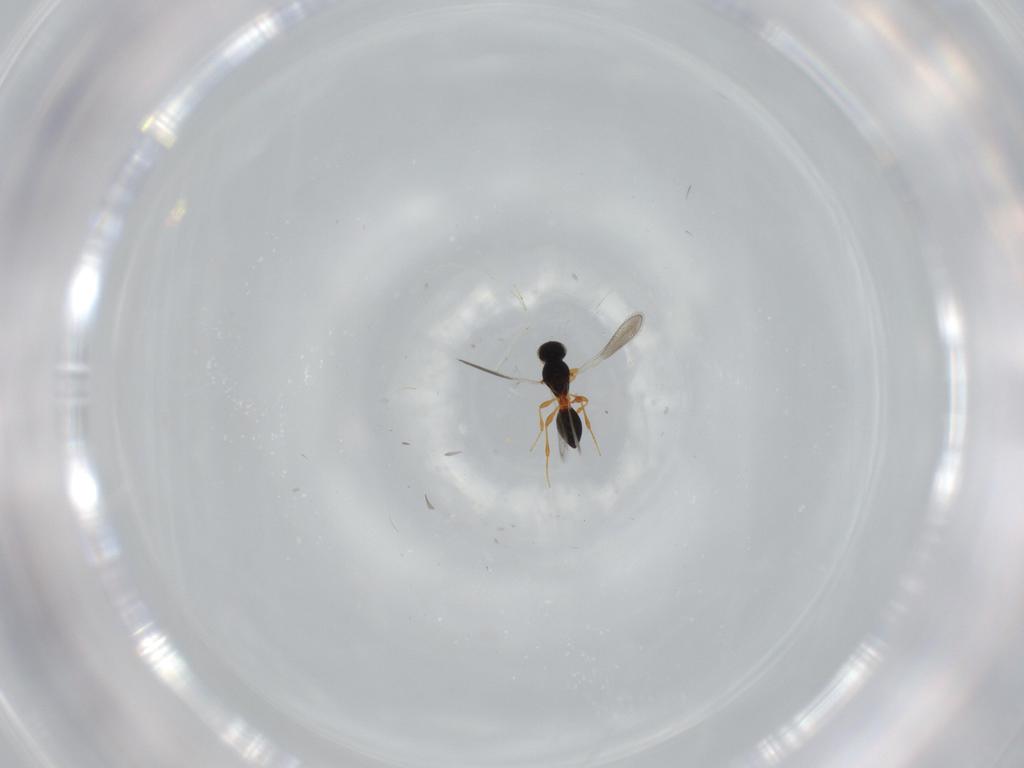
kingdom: Animalia
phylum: Arthropoda
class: Insecta
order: Hymenoptera
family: Platygastridae
